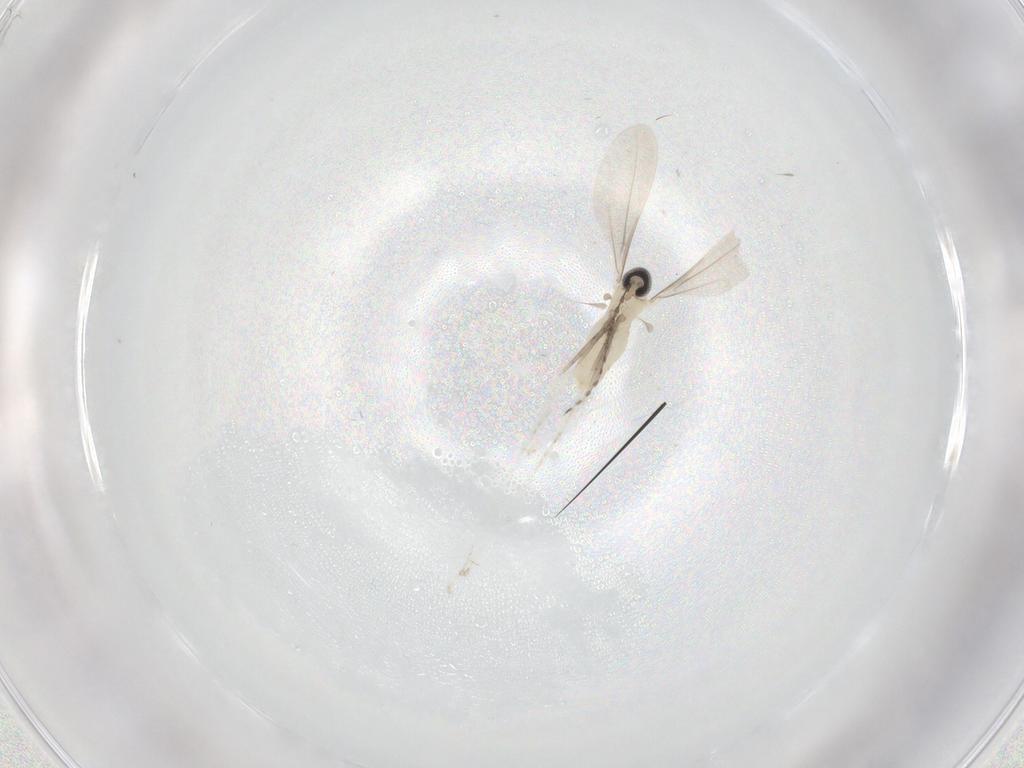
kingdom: Animalia
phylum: Arthropoda
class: Insecta
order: Diptera
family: Cecidomyiidae
